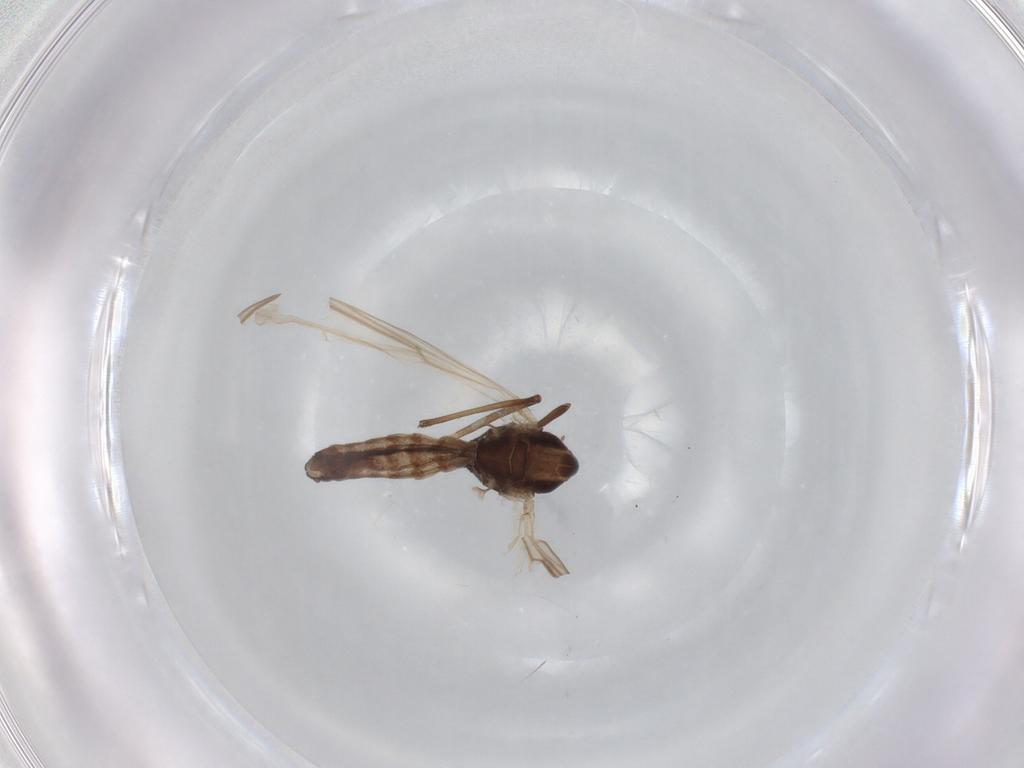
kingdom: Animalia
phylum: Arthropoda
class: Insecta
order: Diptera
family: Chironomidae
